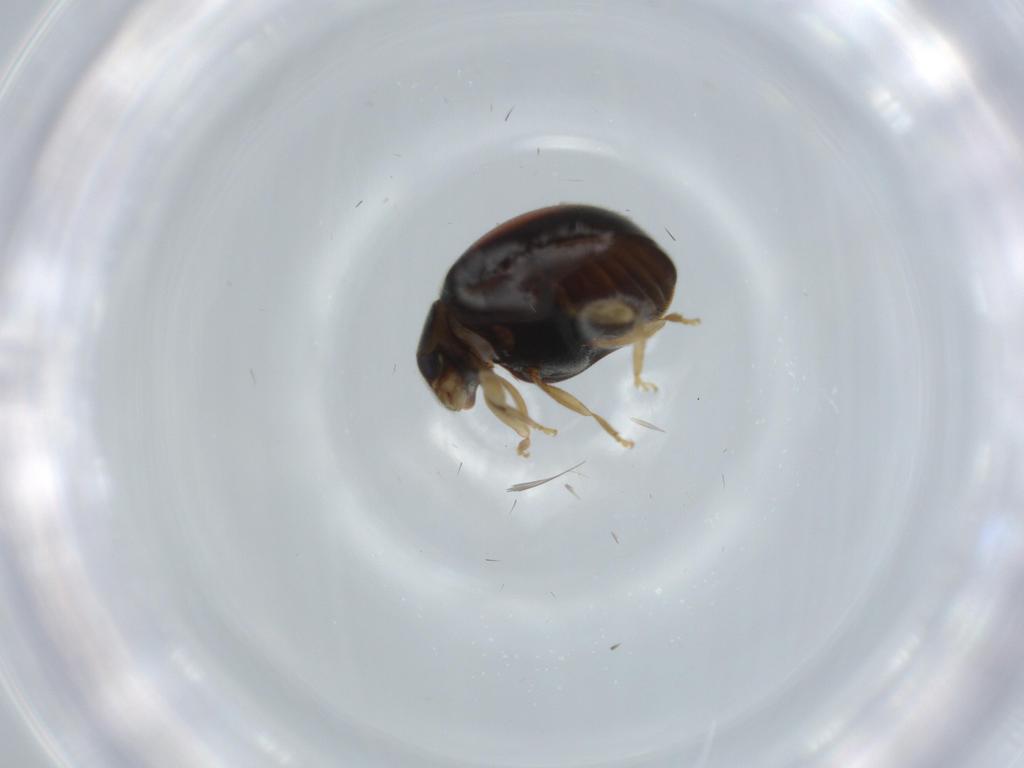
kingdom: Animalia
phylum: Arthropoda
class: Insecta
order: Coleoptera
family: Coccinellidae
